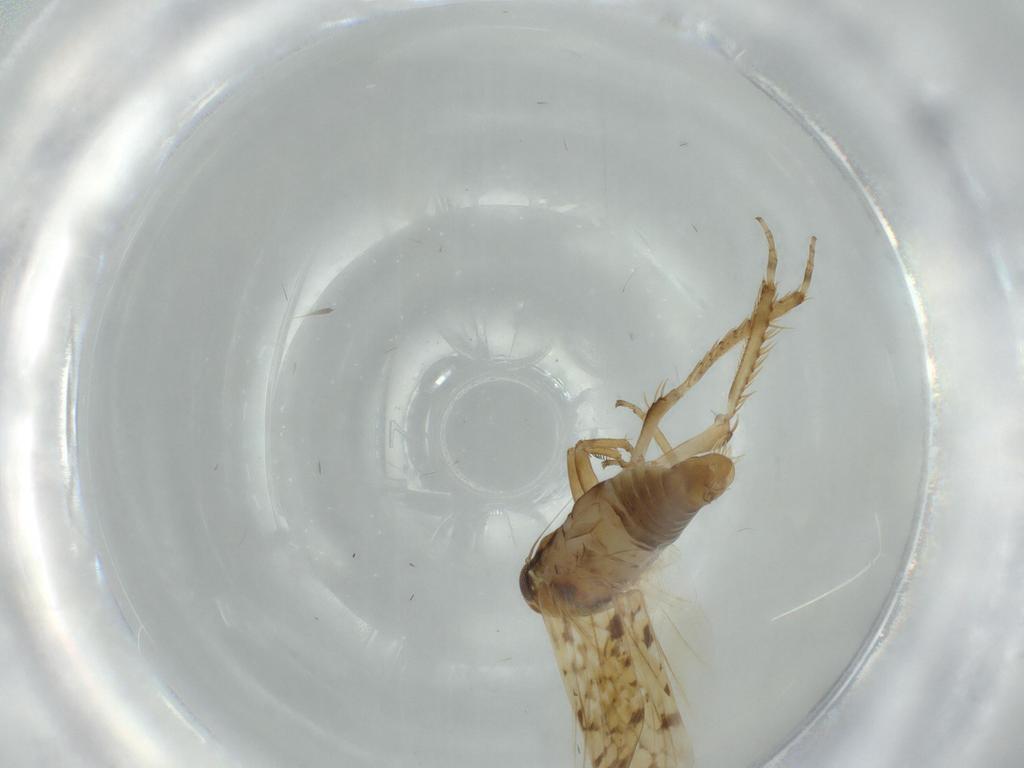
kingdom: Animalia
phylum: Arthropoda
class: Insecta
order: Hemiptera
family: Cicadellidae
